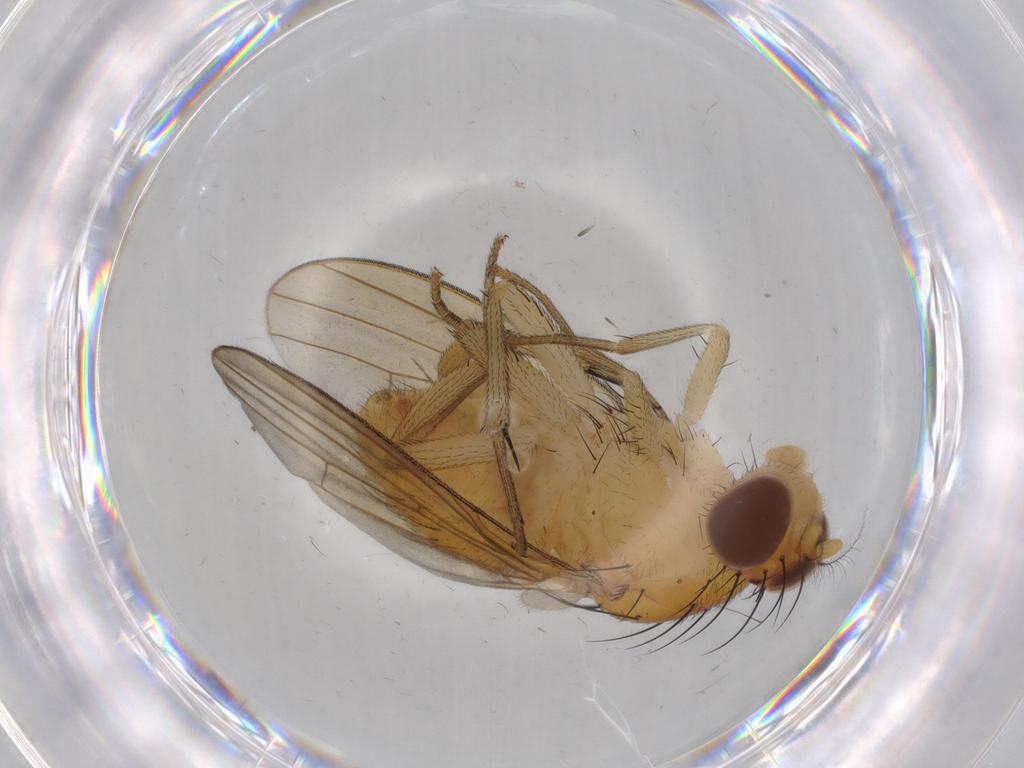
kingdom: Animalia
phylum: Arthropoda
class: Insecta
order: Diptera
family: Sciaridae
